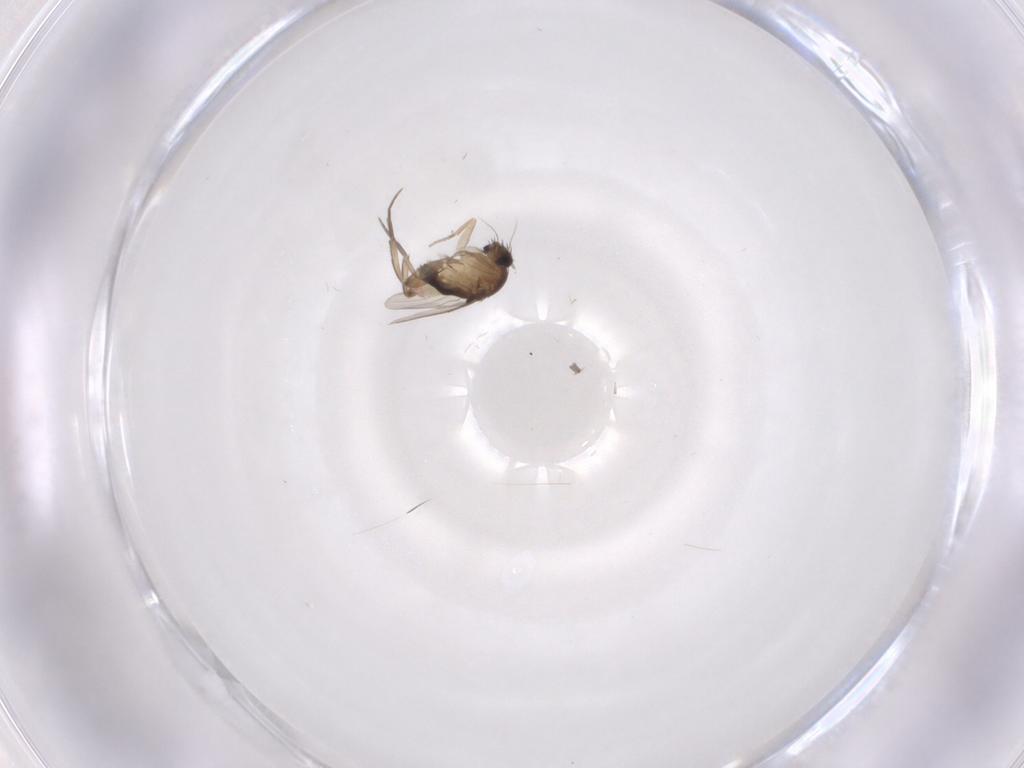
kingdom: Animalia
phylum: Arthropoda
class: Insecta
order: Diptera
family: Phoridae
